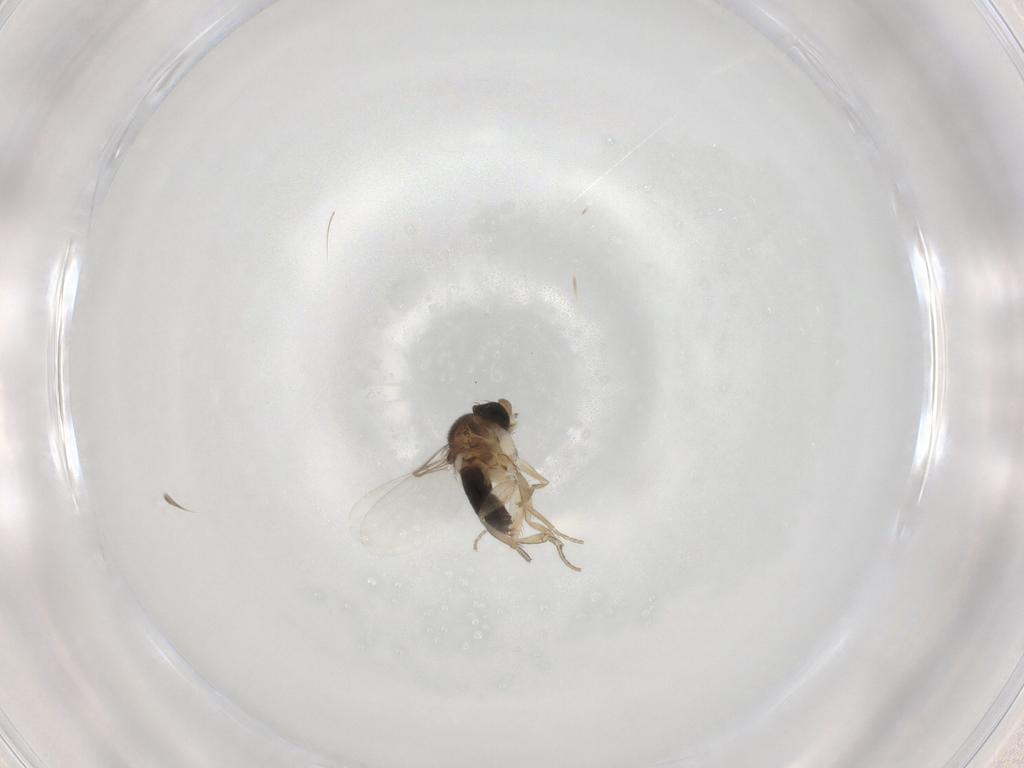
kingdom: Animalia
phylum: Arthropoda
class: Insecta
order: Diptera
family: Phoridae
